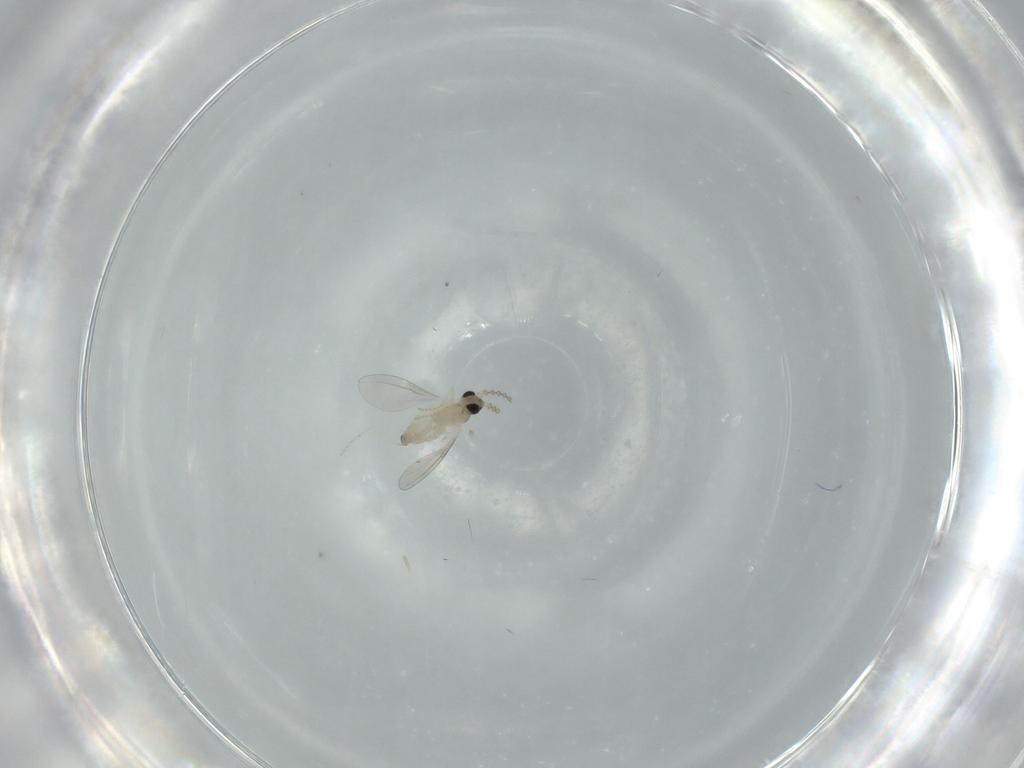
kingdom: Animalia
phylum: Arthropoda
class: Insecta
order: Diptera
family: Cecidomyiidae
